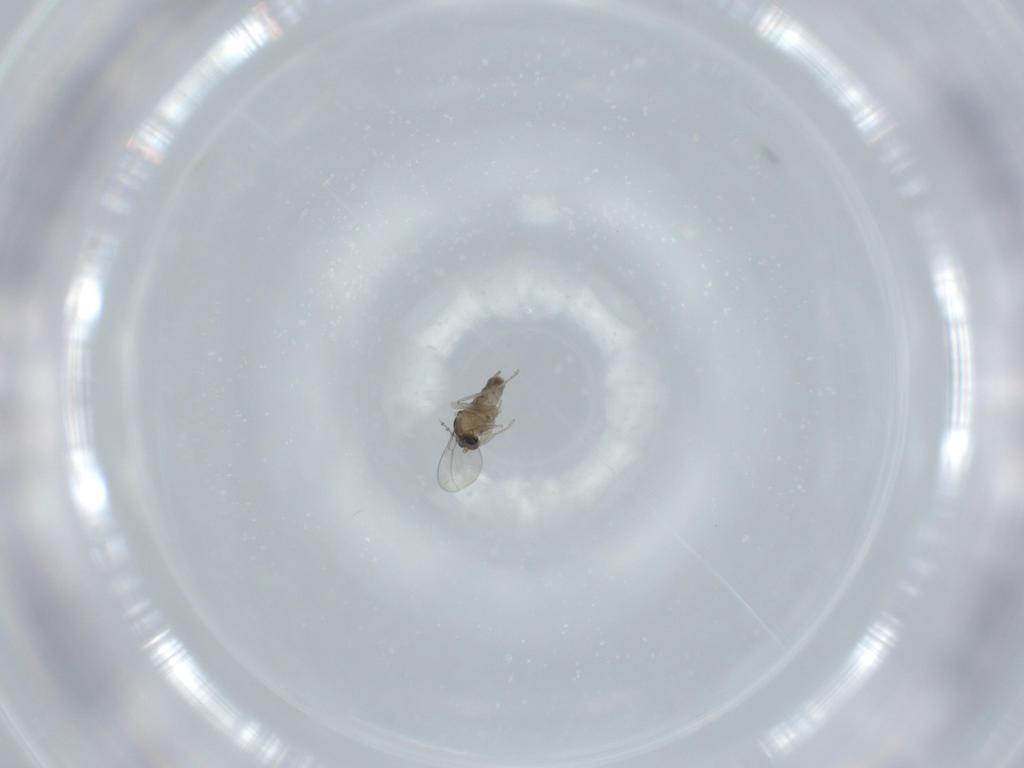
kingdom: Animalia
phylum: Arthropoda
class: Insecta
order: Diptera
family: Cecidomyiidae
